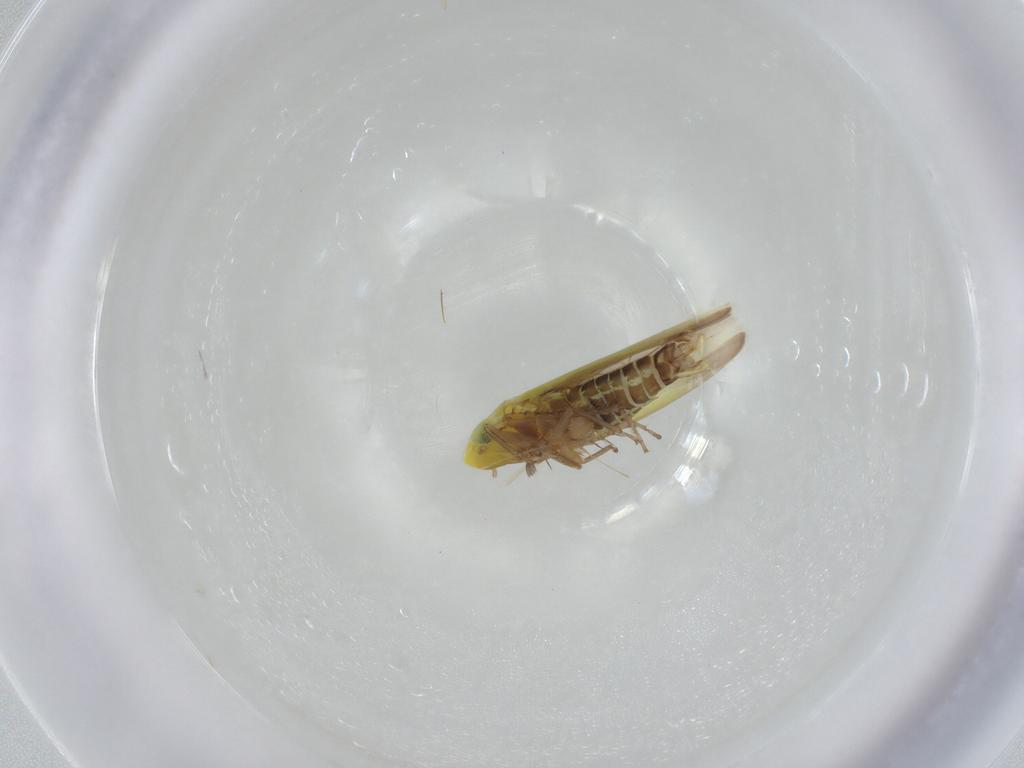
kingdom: Animalia
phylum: Arthropoda
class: Insecta
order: Hemiptera
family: Cicadellidae
